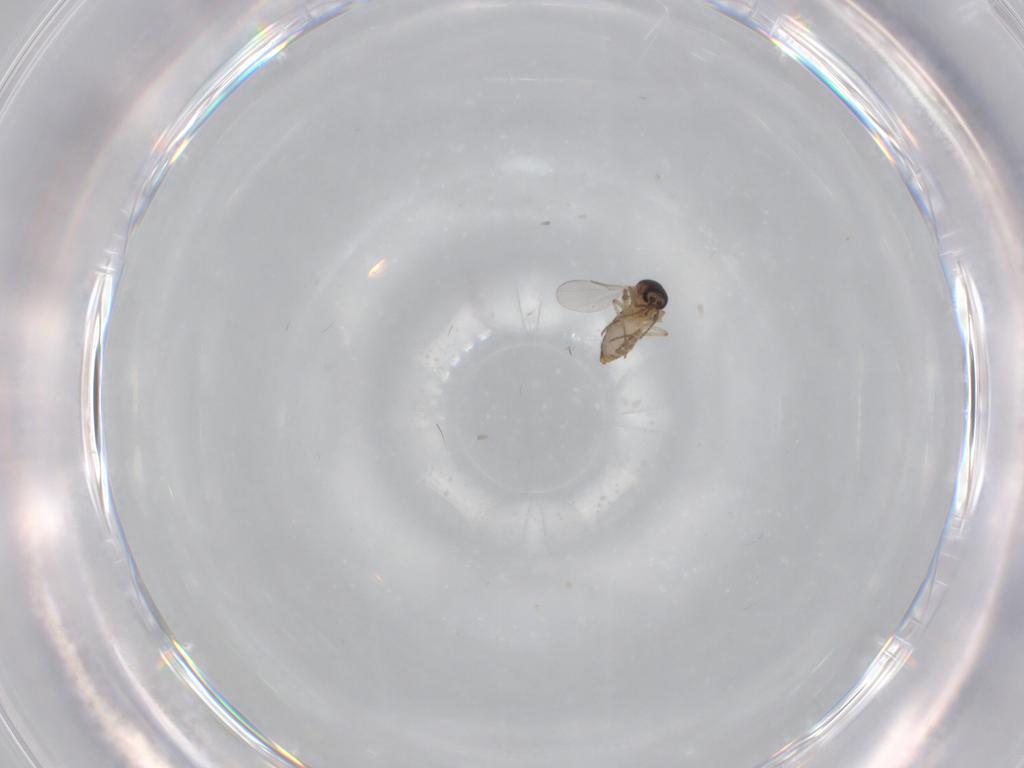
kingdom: Animalia
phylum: Arthropoda
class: Insecta
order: Diptera
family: Ceratopogonidae
